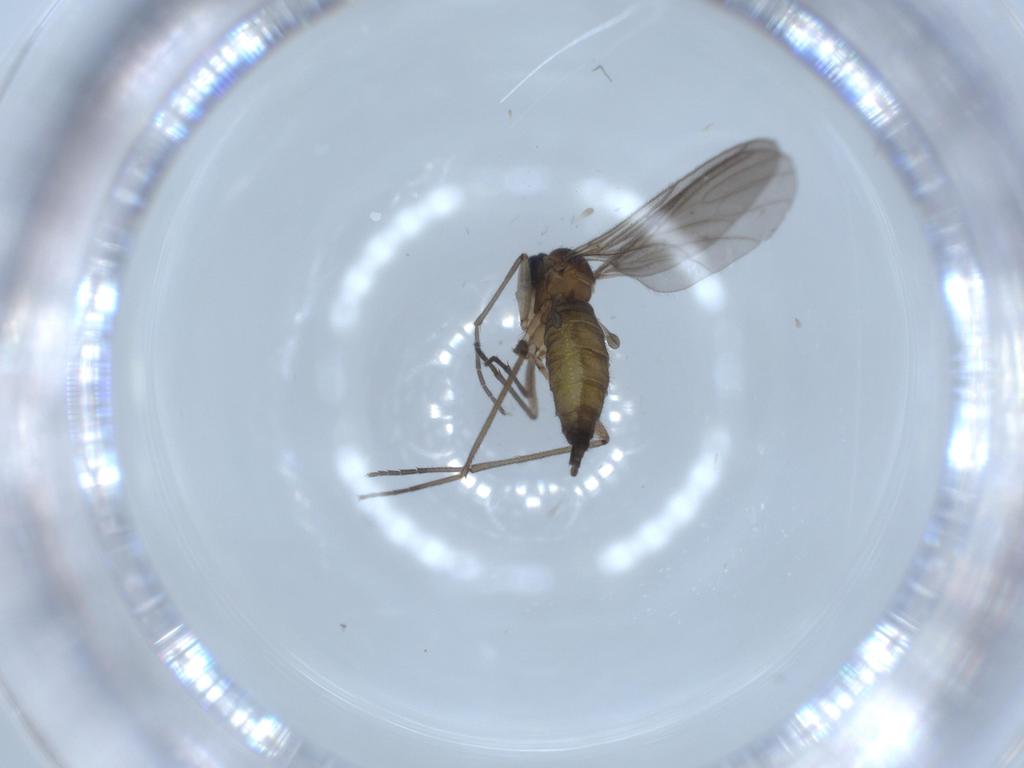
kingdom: Animalia
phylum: Arthropoda
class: Insecta
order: Diptera
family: Sciaridae
